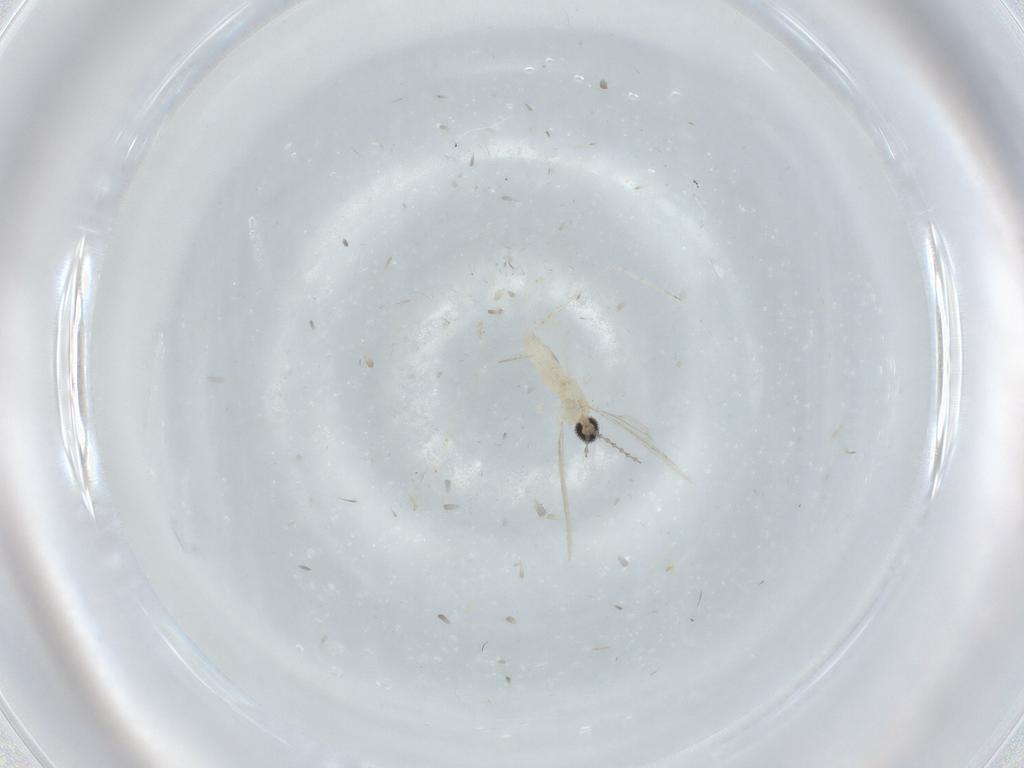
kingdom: Animalia
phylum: Arthropoda
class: Insecta
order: Diptera
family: Cecidomyiidae
